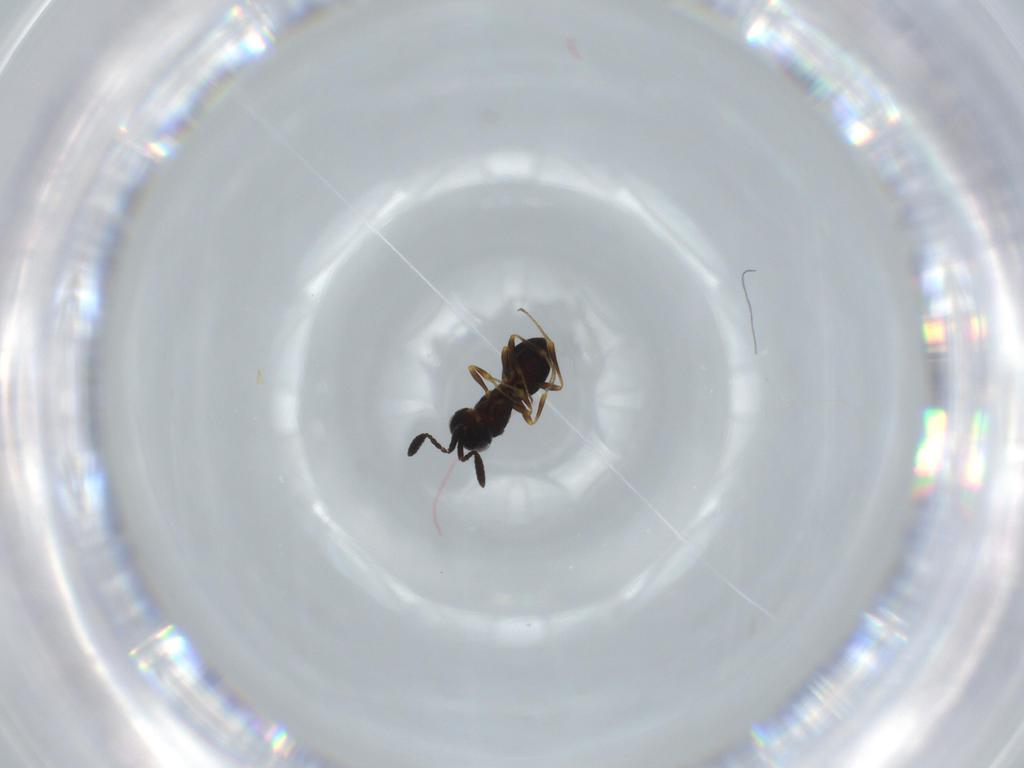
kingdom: Animalia
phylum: Arthropoda
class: Insecta
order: Hymenoptera
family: Scelionidae
